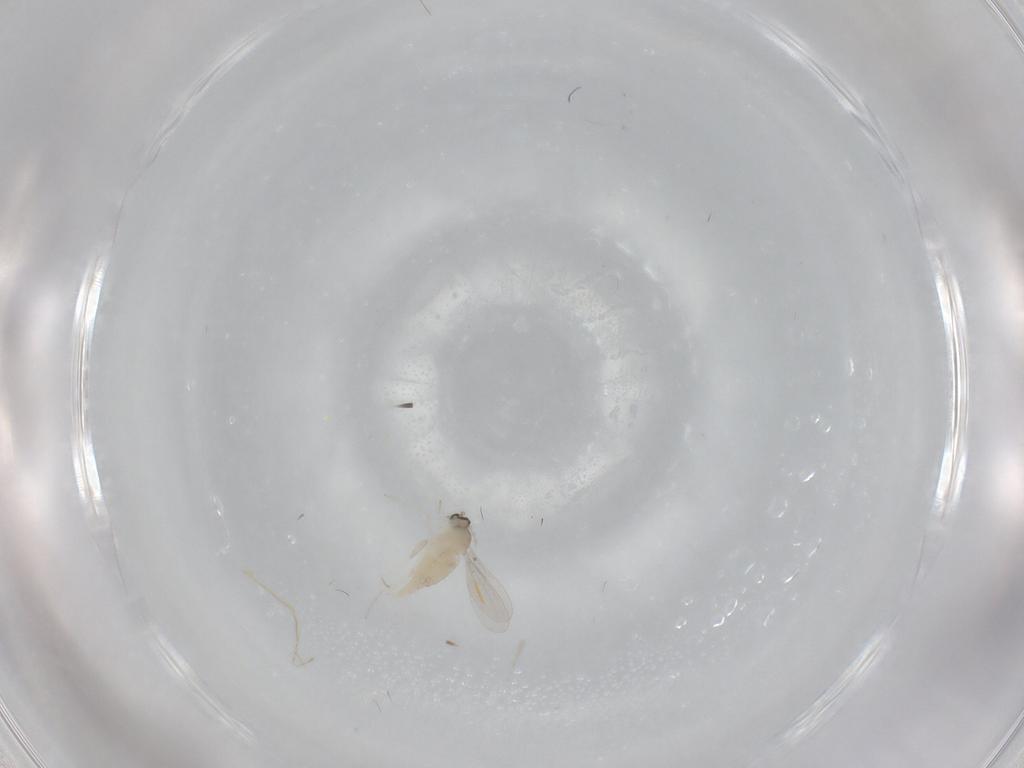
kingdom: Animalia
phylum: Arthropoda
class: Insecta
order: Diptera
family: Cecidomyiidae
